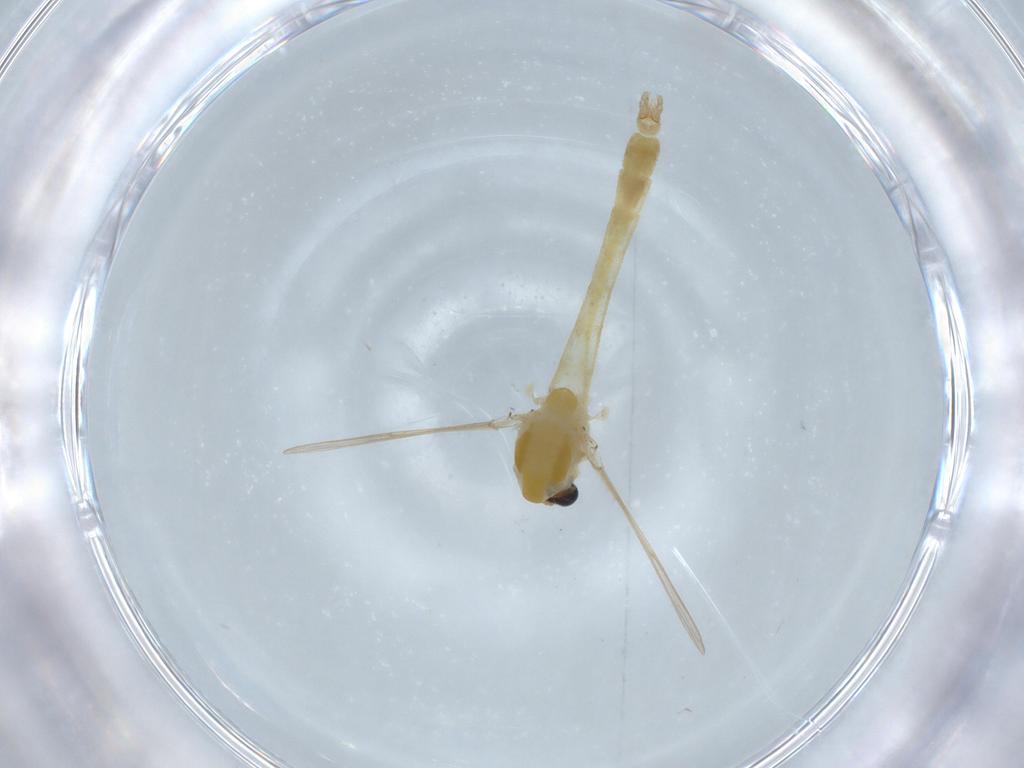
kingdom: Animalia
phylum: Arthropoda
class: Insecta
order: Diptera
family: Chironomidae
